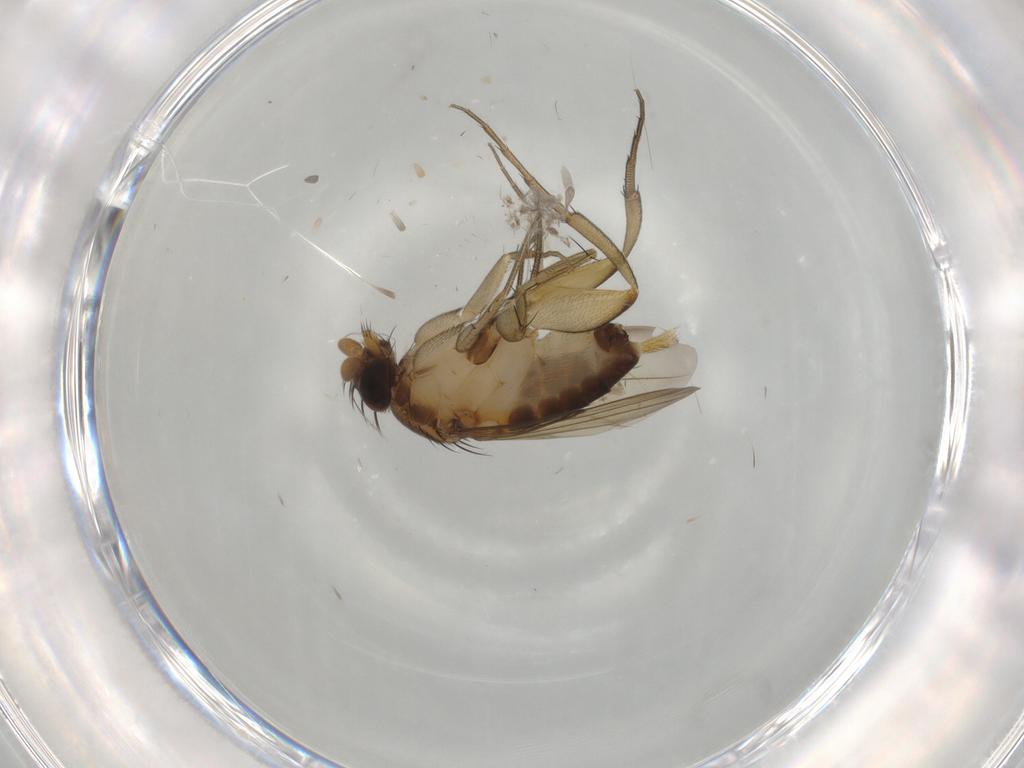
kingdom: Animalia
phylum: Arthropoda
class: Insecta
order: Diptera
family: Phoridae
